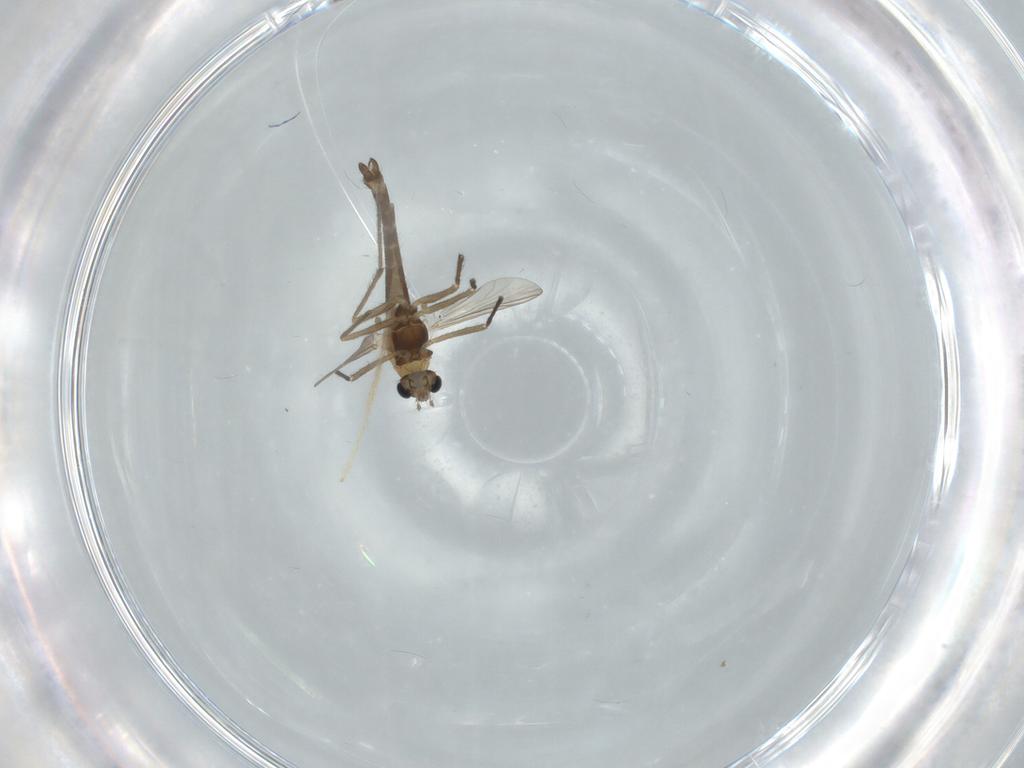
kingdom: Animalia
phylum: Arthropoda
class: Insecta
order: Diptera
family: Chironomidae
